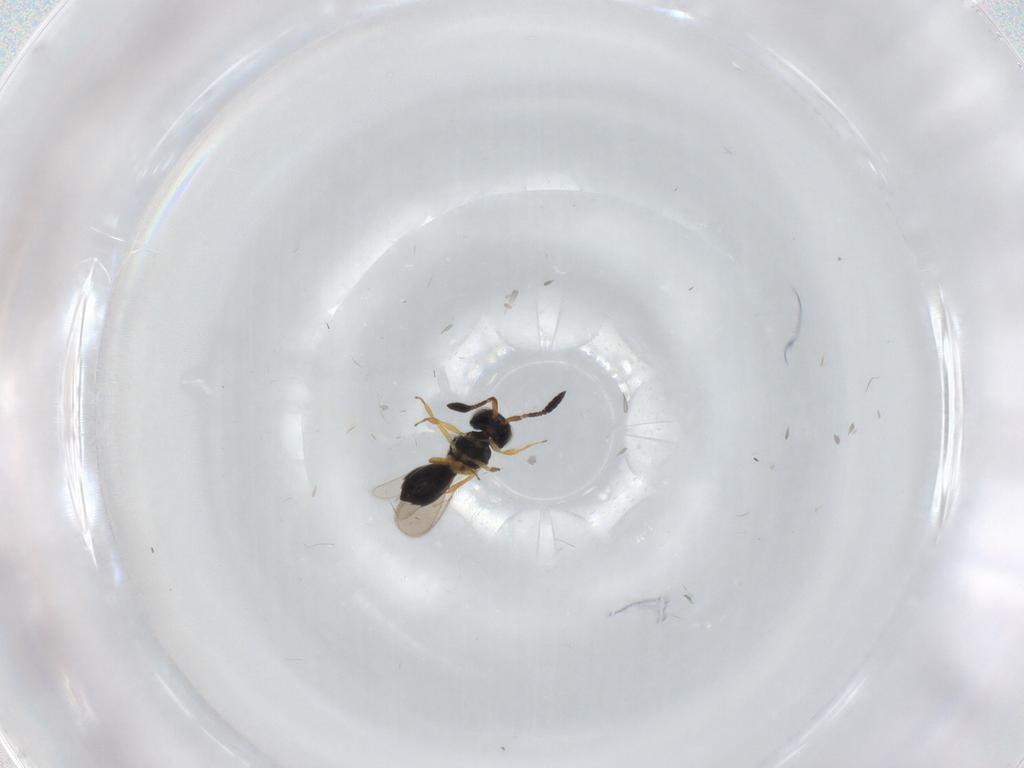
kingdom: Animalia
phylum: Arthropoda
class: Insecta
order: Hymenoptera
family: Scelionidae
